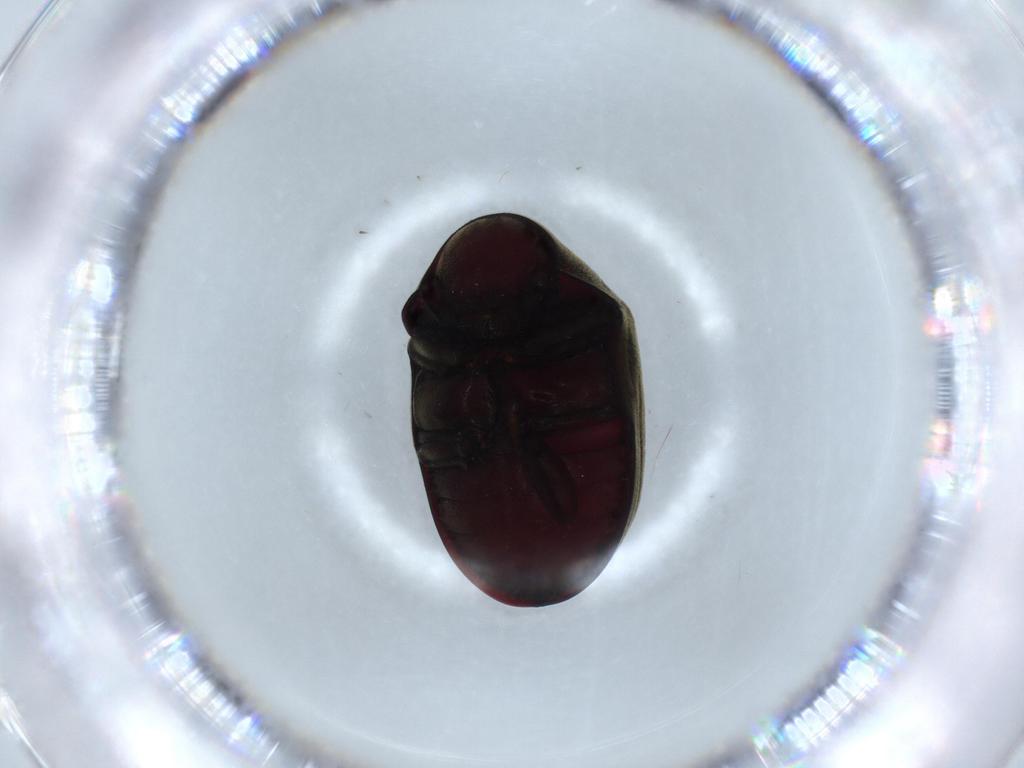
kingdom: Animalia
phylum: Arthropoda
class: Insecta
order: Coleoptera
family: Ptinidae
